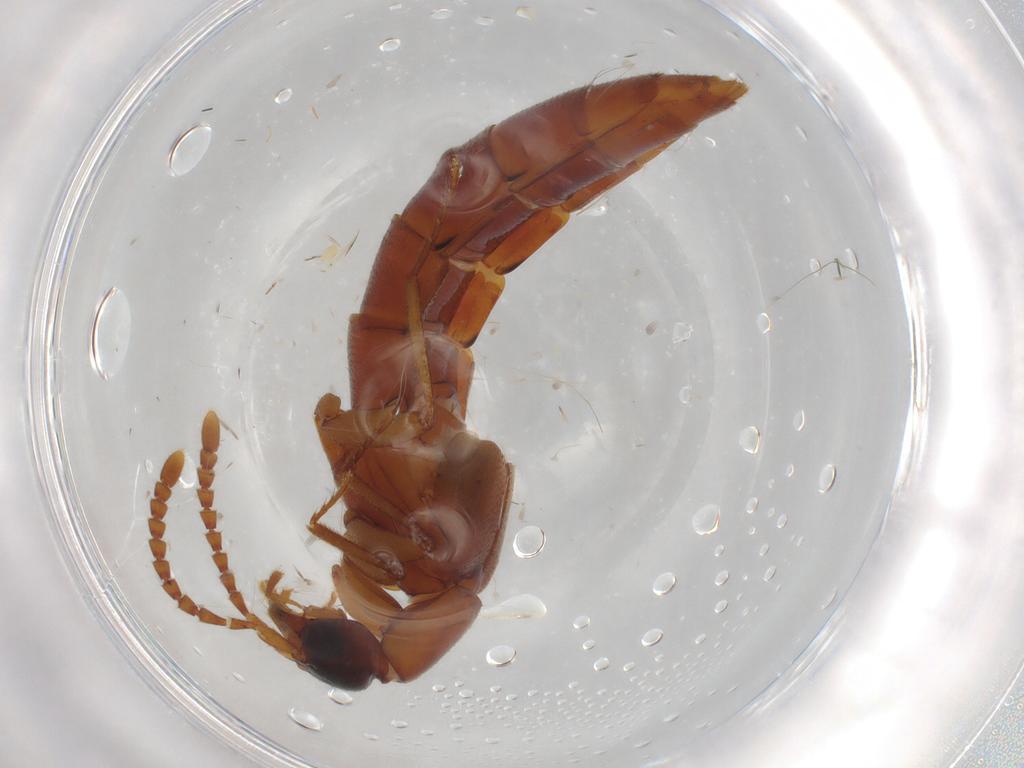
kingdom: Animalia
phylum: Arthropoda
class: Insecta
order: Coleoptera
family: Staphylinidae
